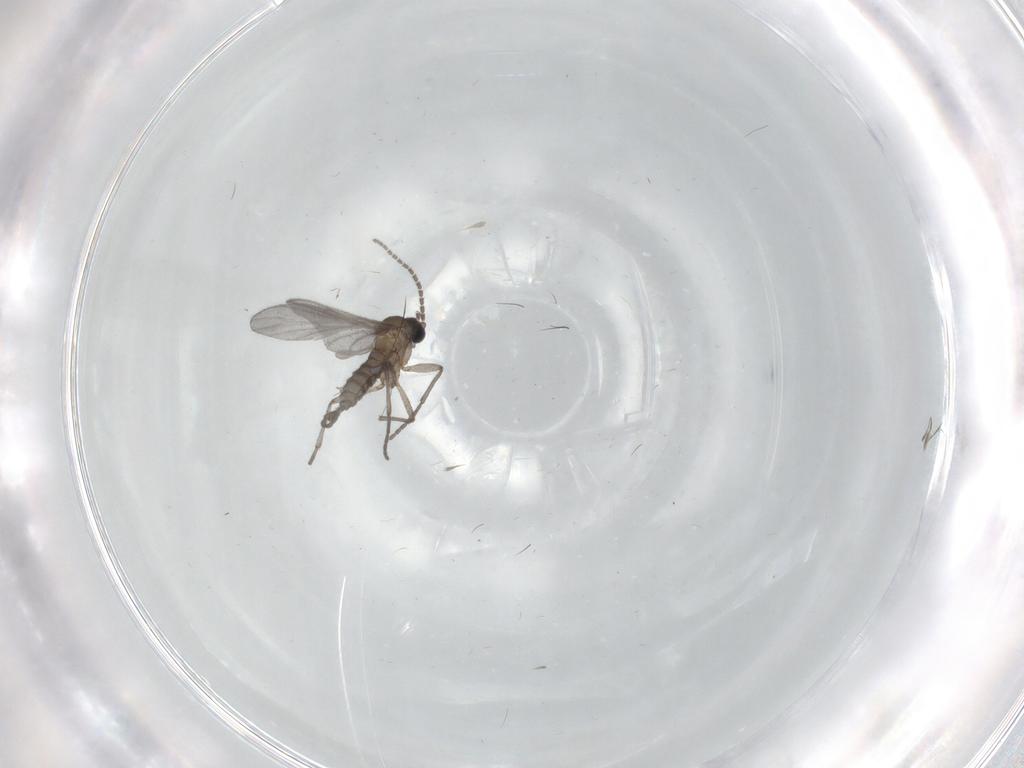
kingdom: Animalia
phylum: Arthropoda
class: Insecta
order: Diptera
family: Sciaridae
